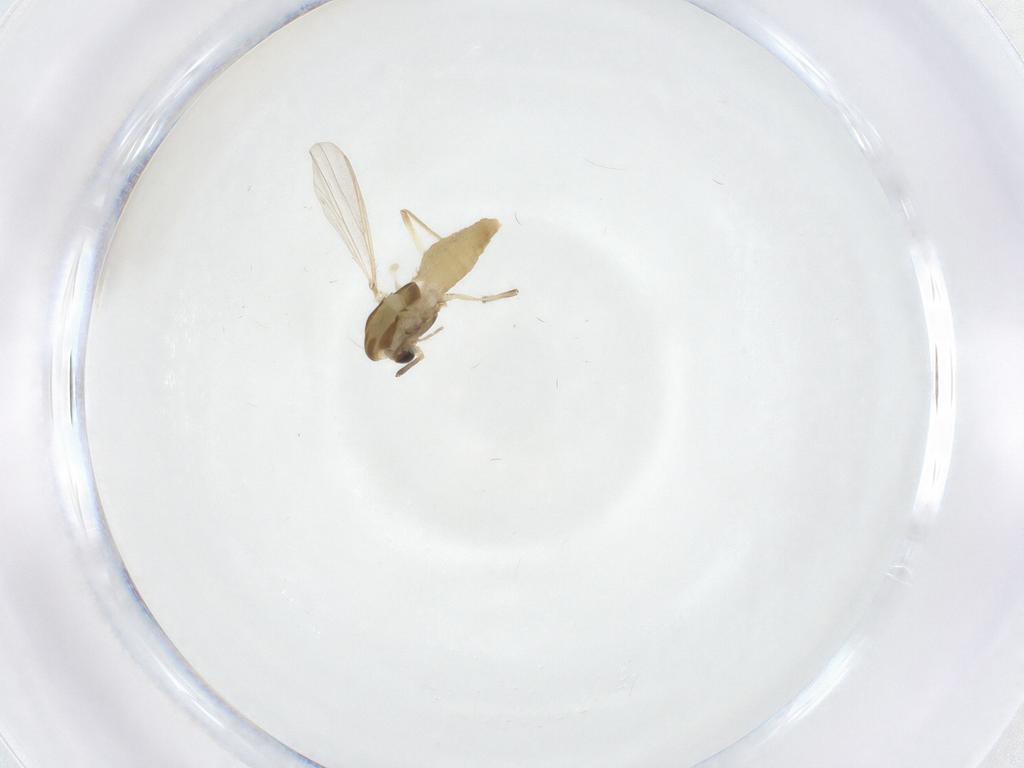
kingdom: Animalia
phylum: Arthropoda
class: Insecta
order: Diptera
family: Chironomidae
